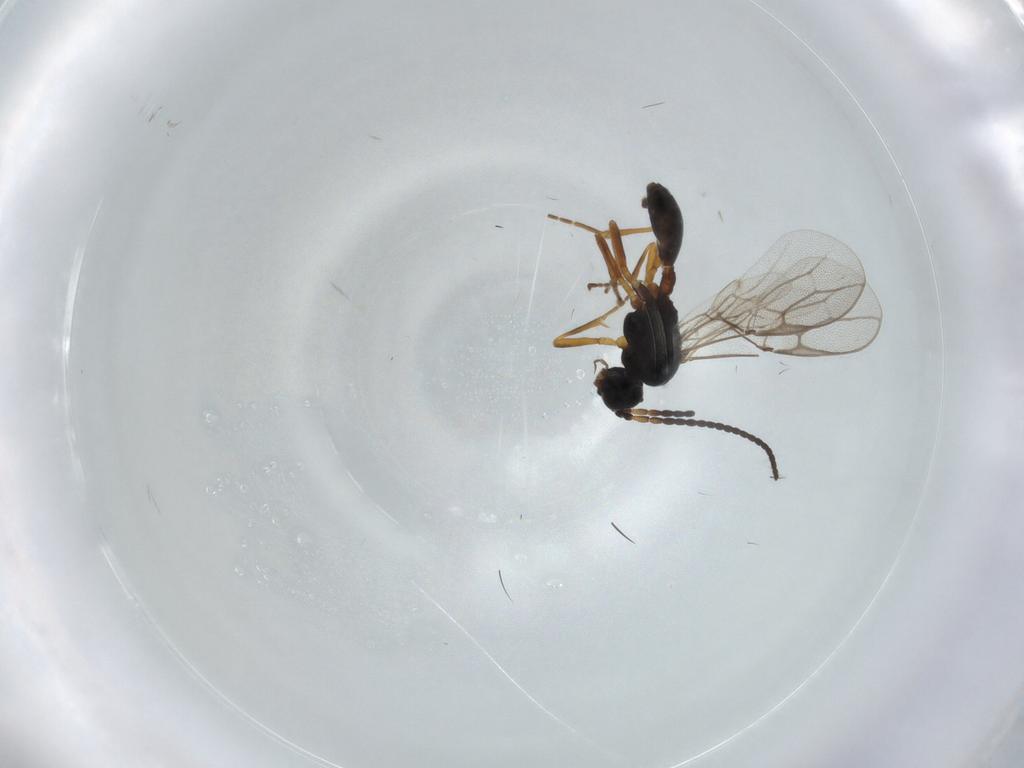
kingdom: Animalia
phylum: Arthropoda
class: Insecta
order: Hymenoptera
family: Braconidae
